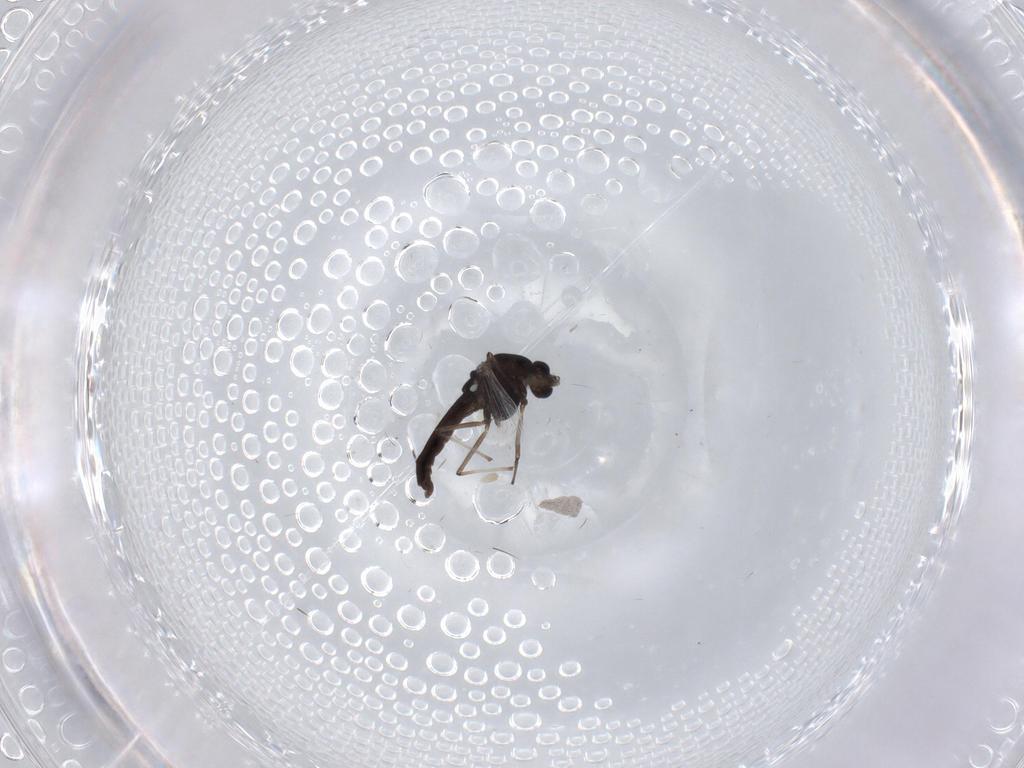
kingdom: Animalia
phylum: Arthropoda
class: Insecta
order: Diptera
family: Chironomidae
